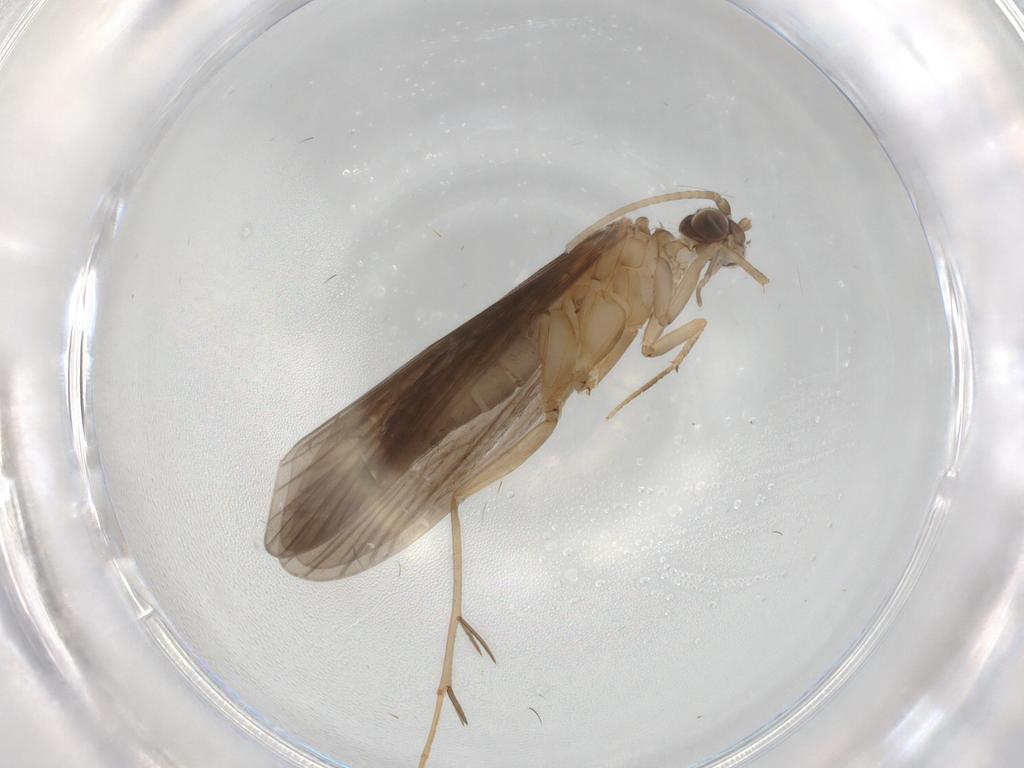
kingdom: Animalia
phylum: Arthropoda
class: Insecta
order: Trichoptera
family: Philopotamidae
